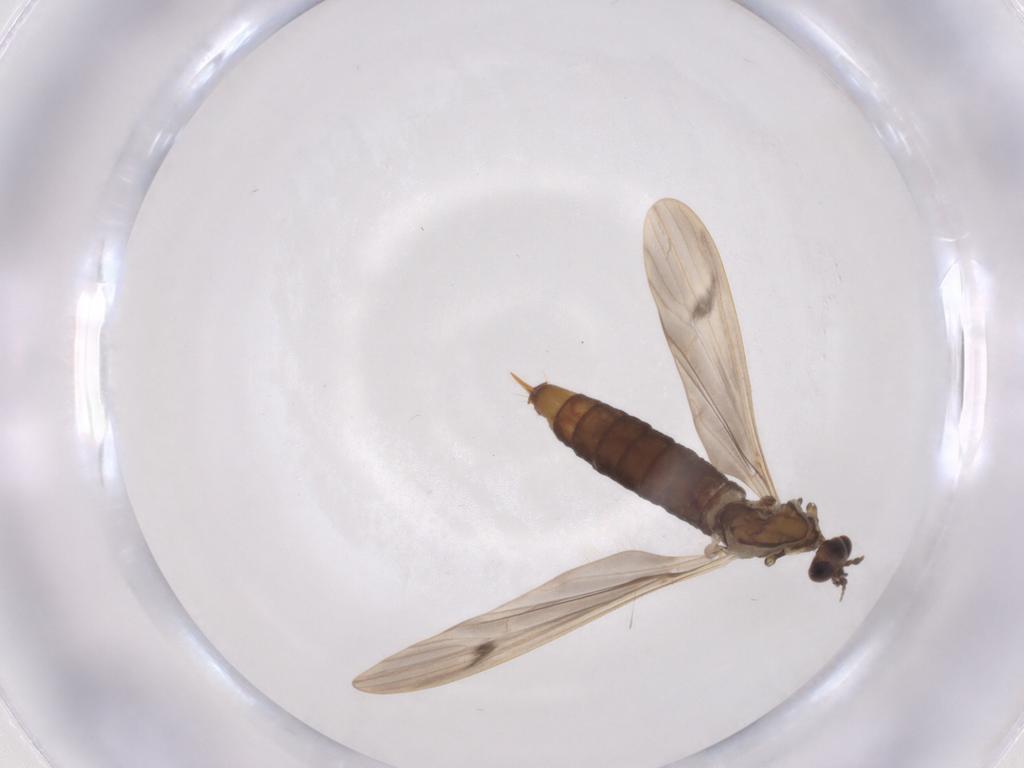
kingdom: Animalia
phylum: Arthropoda
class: Insecta
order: Diptera
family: Limoniidae
